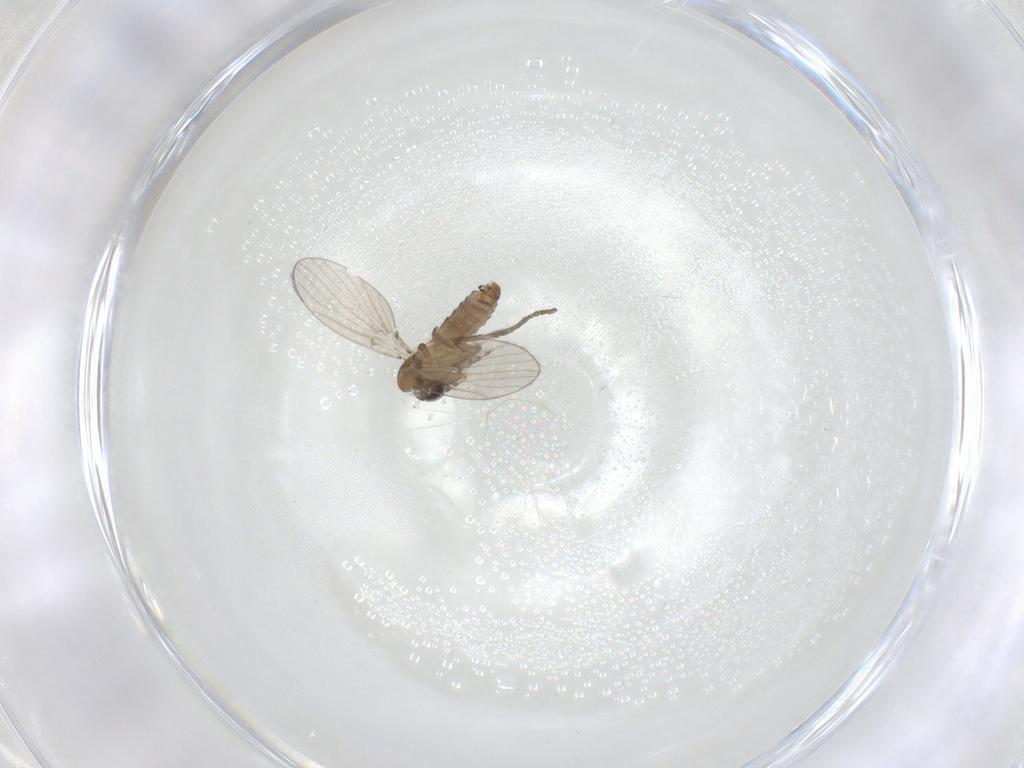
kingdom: Animalia
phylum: Arthropoda
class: Insecta
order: Diptera
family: Psychodidae
